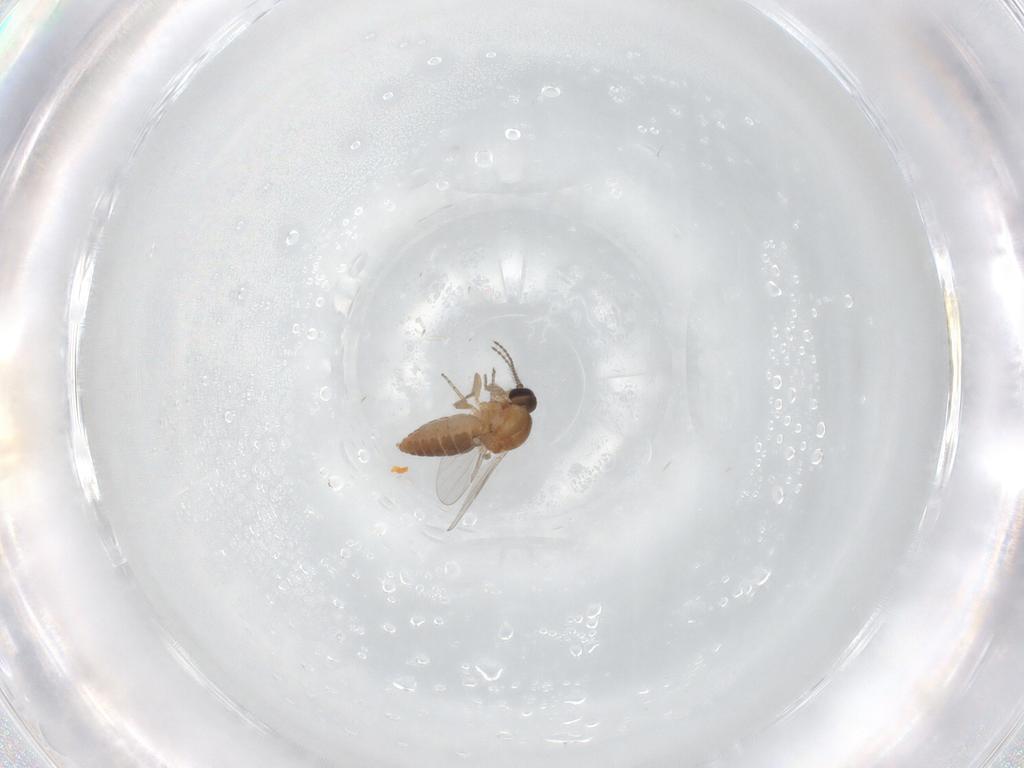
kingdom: Animalia
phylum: Arthropoda
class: Insecta
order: Diptera
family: Ceratopogonidae
